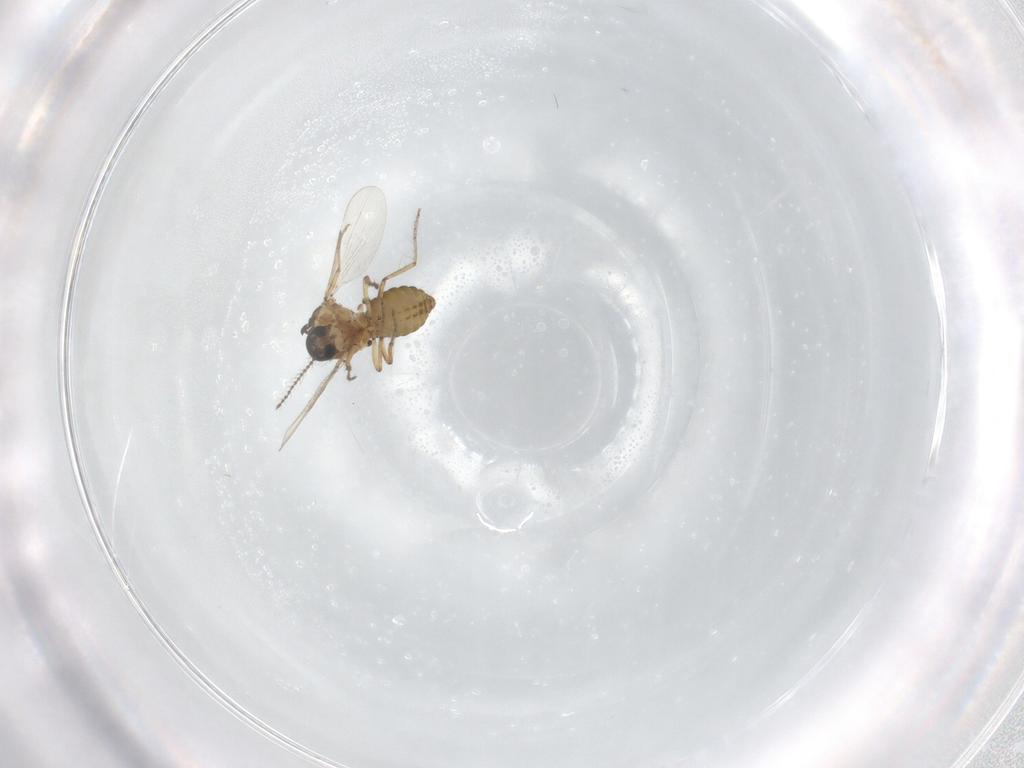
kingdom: Animalia
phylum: Arthropoda
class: Insecta
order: Diptera
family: Ceratopogonidae
